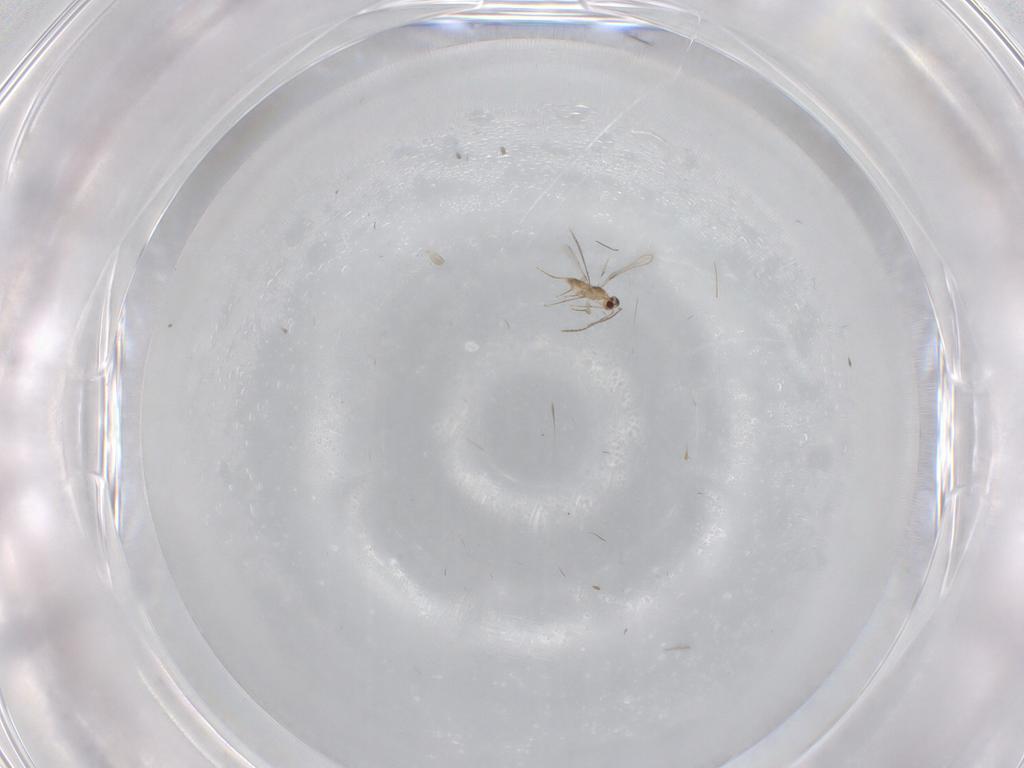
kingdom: Animalia
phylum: Arthropoda
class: Insecta
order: Hymenoptera
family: Mymaridae
